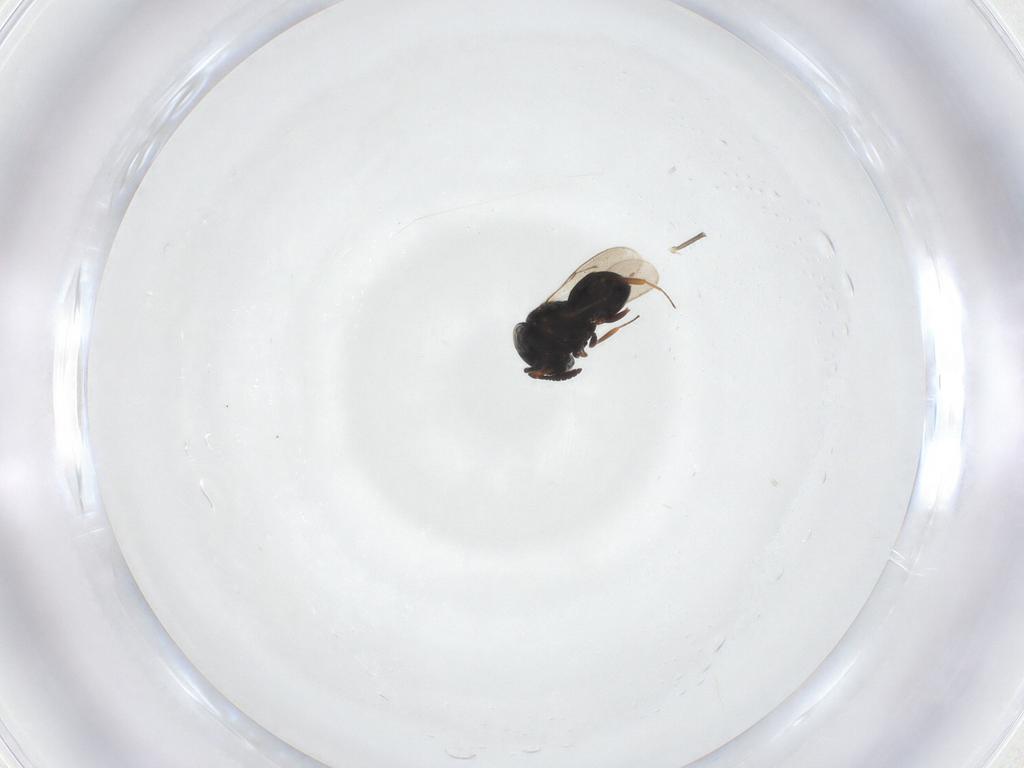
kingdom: Animalia
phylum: Arthropoda
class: Insecta
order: Hymenoptera
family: Scelionidae
